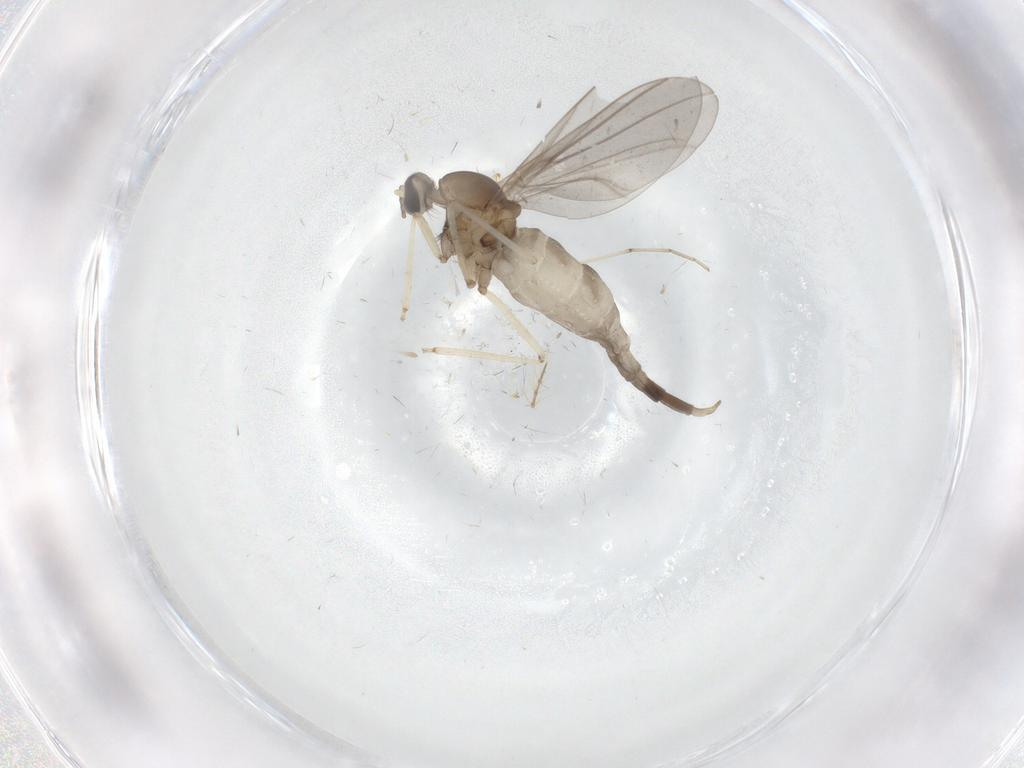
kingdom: Animalia
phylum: Arthropoda
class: Insecta
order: Diptera
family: Cecidomyiidae
